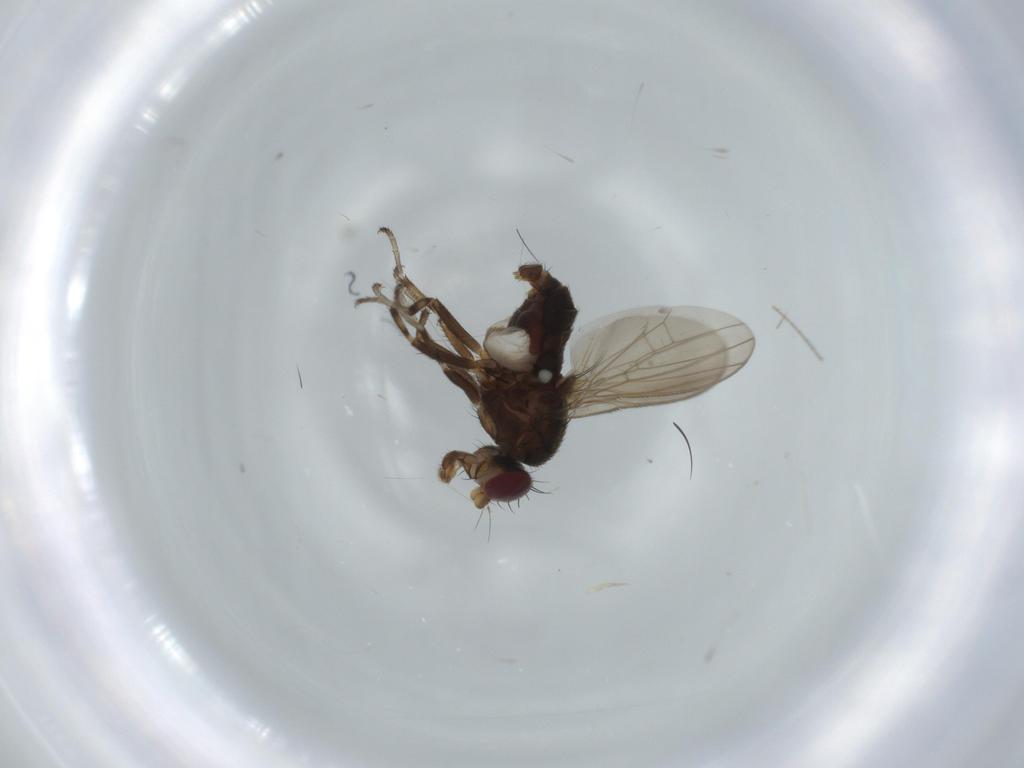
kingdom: Animalia
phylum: Arthropoda
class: Insecta
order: Diptera
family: Heleomyzidae
